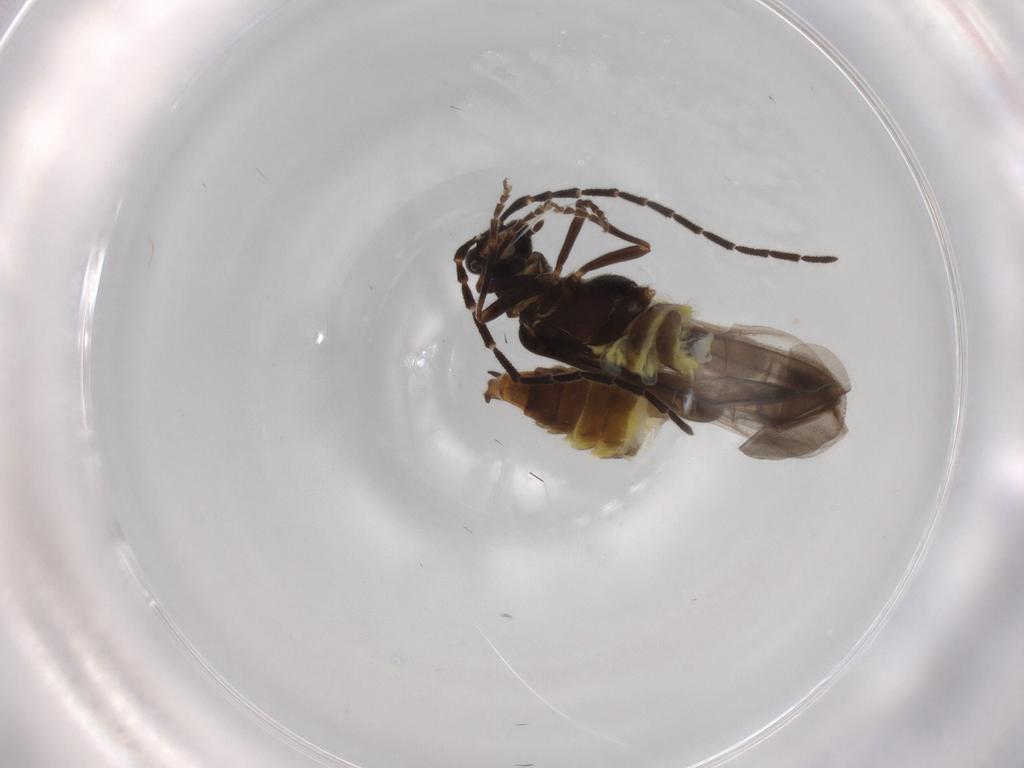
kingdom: Animalia
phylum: Arthropoda
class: Insecta
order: Coleoptera
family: Cantharidae
